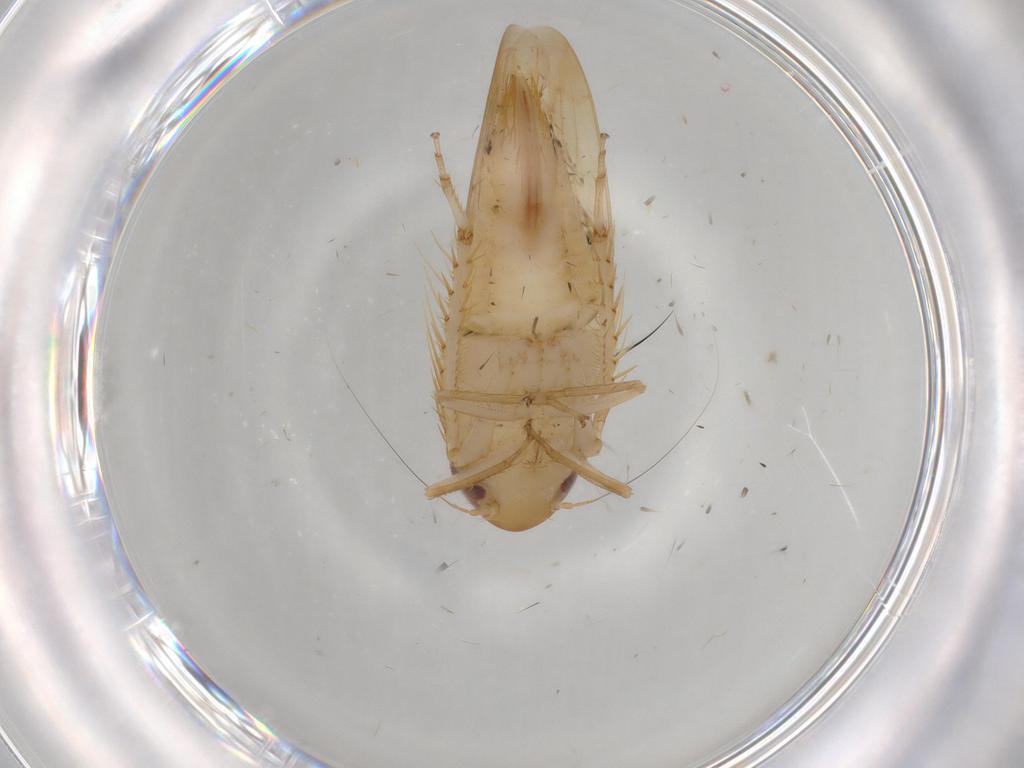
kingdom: Animalia
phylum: Arthropoda
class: Insecta
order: Hemiptera
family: Cicadellidae
